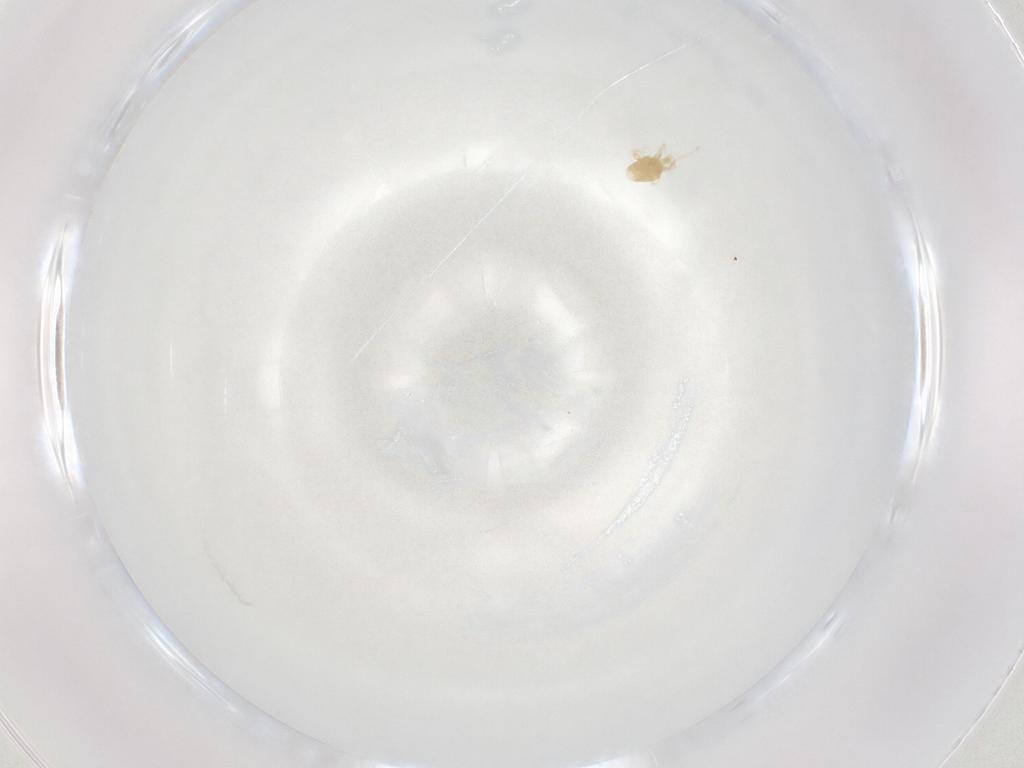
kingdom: Animalia
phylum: Arthropoda
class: Arachnida
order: Trombidiformes
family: Eupodidae
